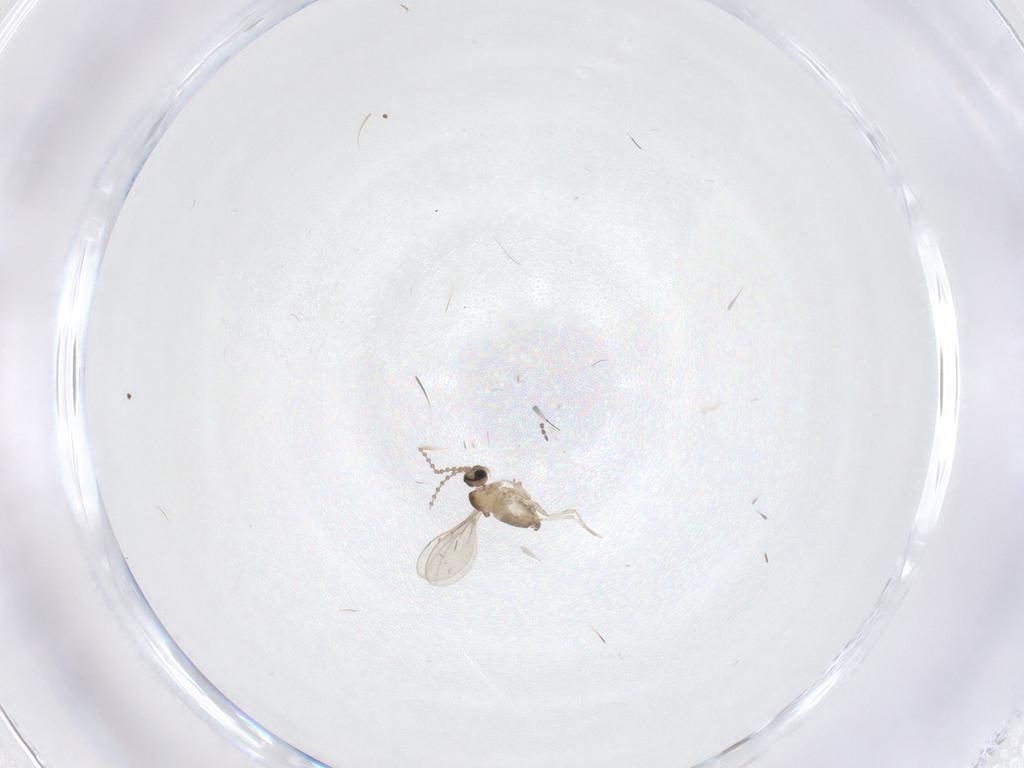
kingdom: Animalia
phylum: Arthropoda
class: Insecta
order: Diptera
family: Cecidomyiidae
